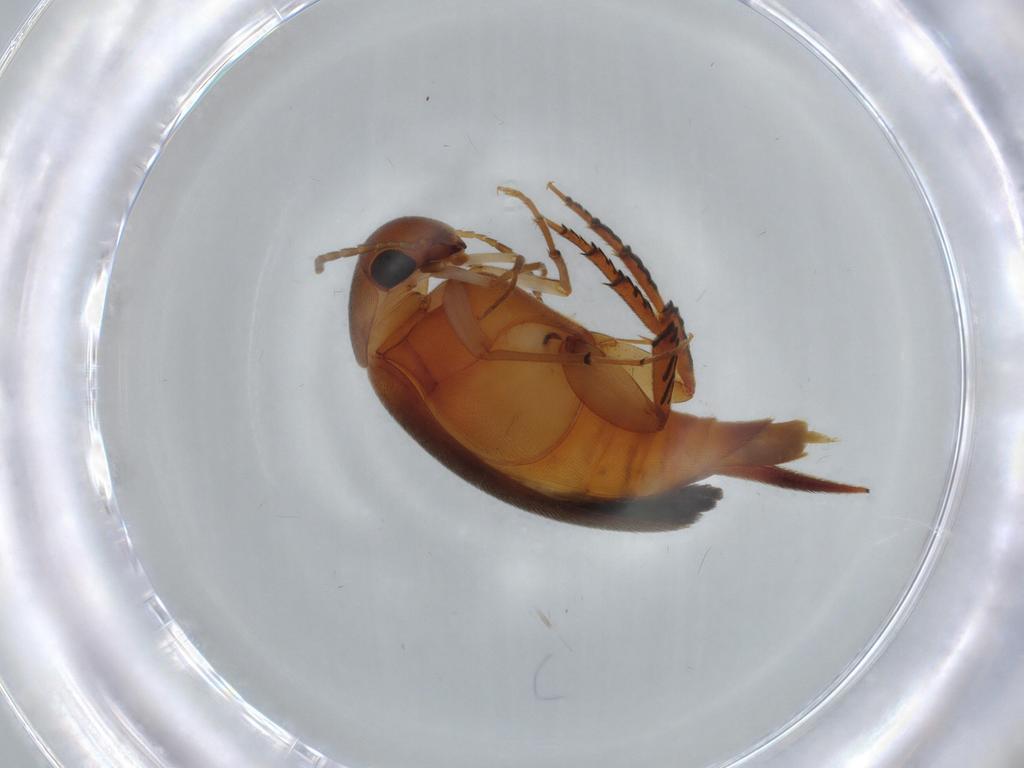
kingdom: Animalia
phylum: Arthropoda
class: Insecta
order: Coleoptera
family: Mordellidae
